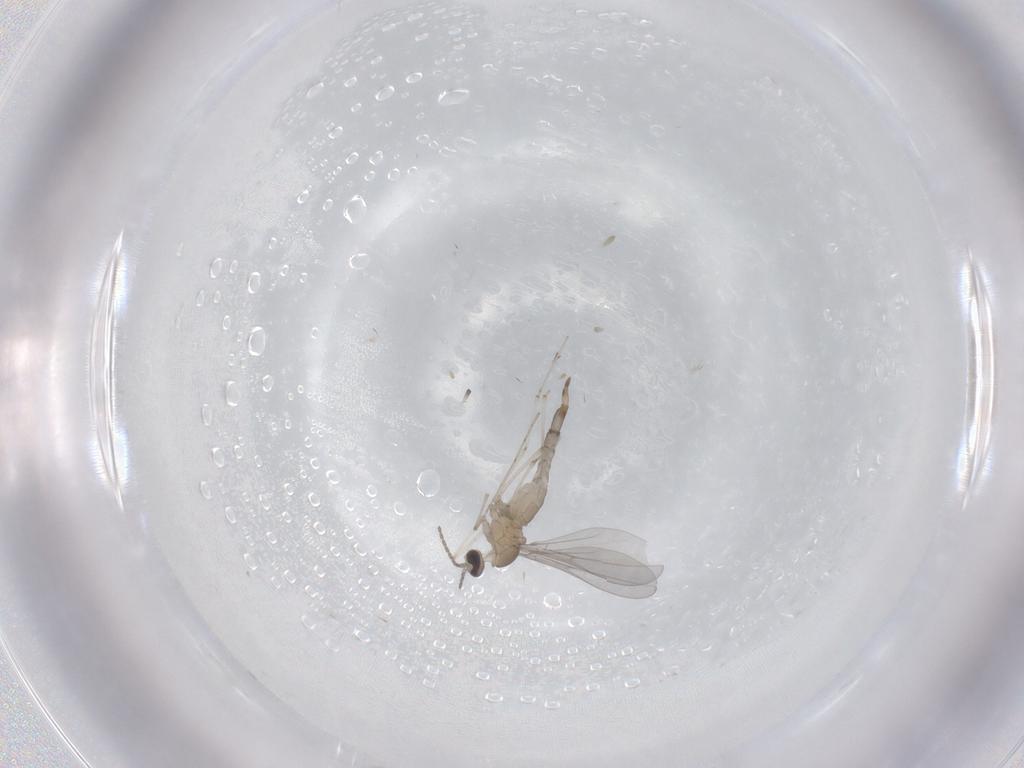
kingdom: Animalia
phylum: Arthropoda
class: Insecta
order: Diptera
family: Cecidomyiidae
